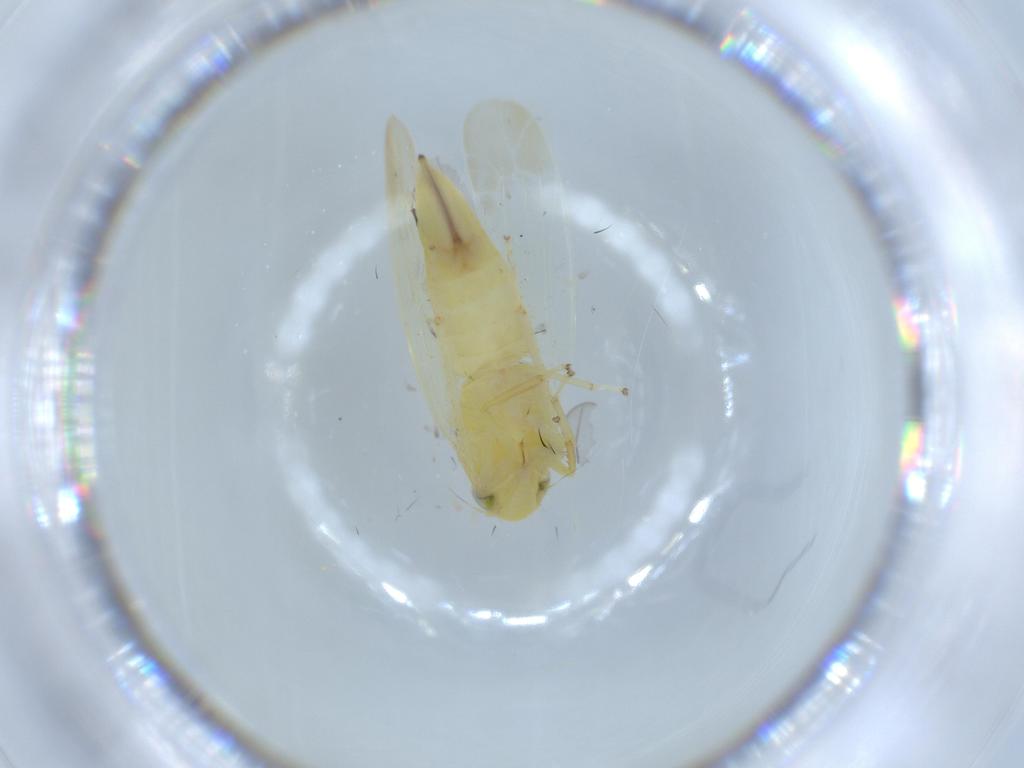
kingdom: Animalia
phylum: Arthropoda
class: Insecta
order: Hemiptera
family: Cicadellidae
